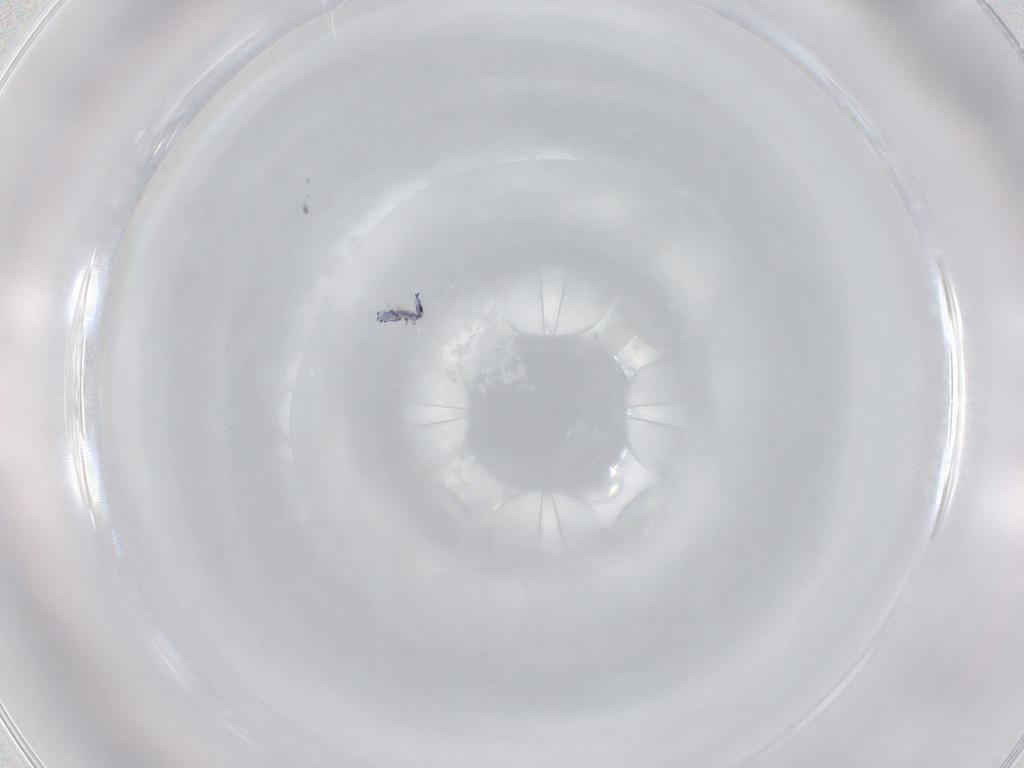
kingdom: Animalia
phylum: Arthropoda
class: Collembola
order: Entomobryomorpha
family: Entomobryidae
